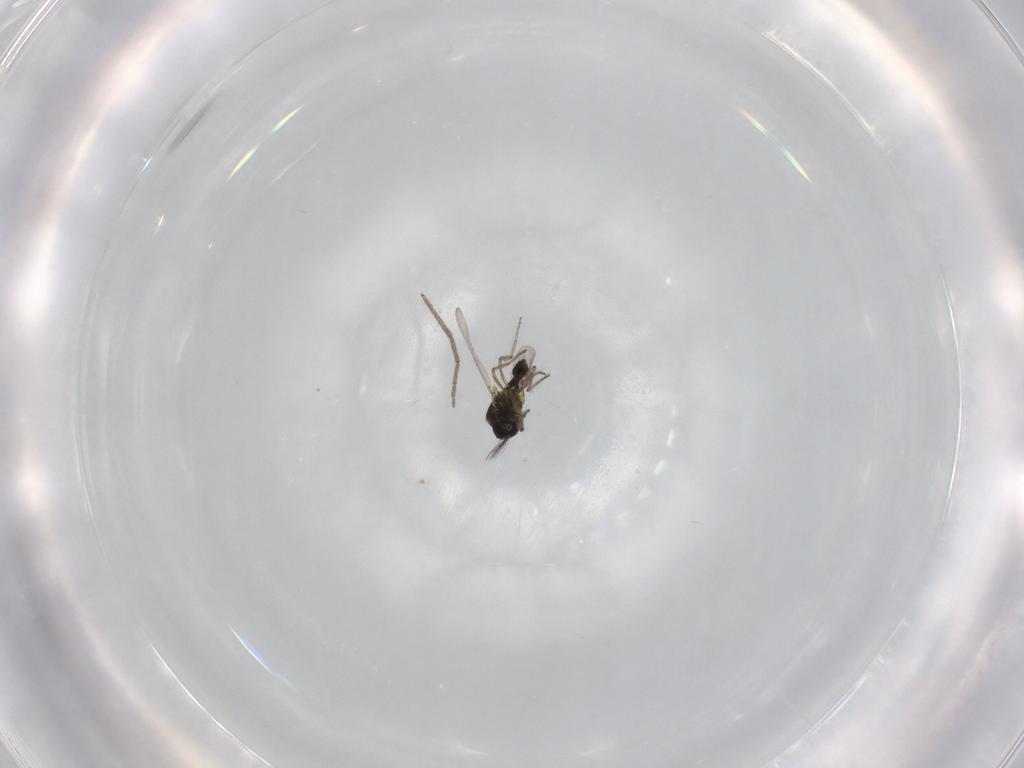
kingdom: Animalia
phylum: Arthropoda
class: Insecta
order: Diptera
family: Ceratopogonidae
